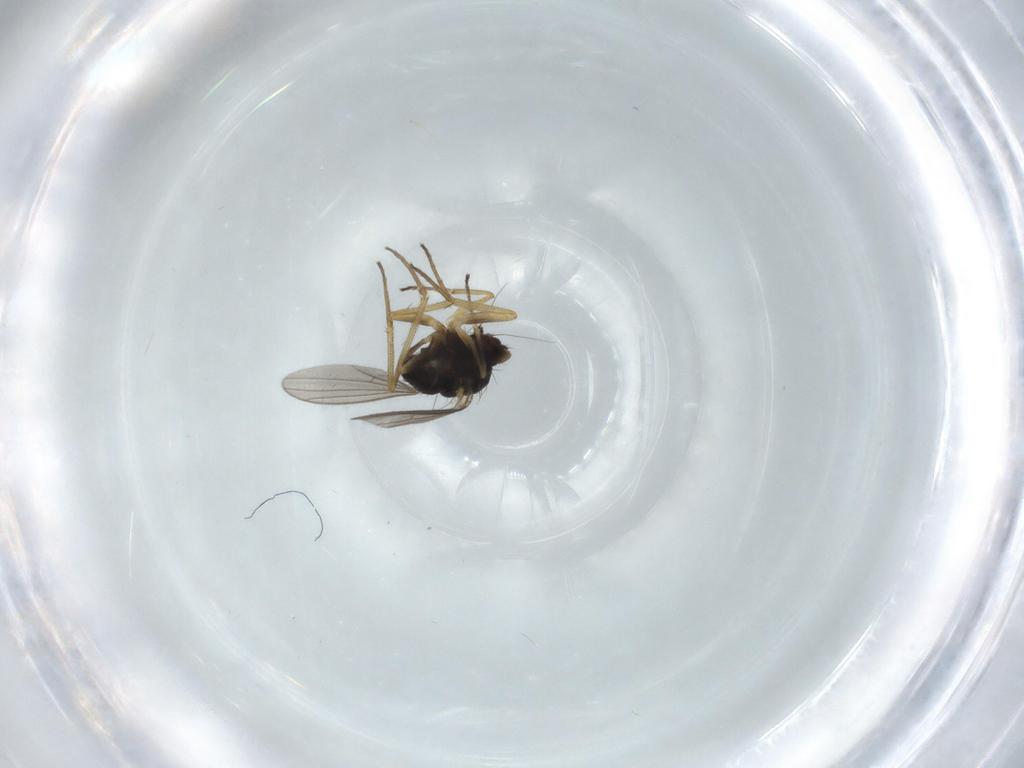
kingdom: Animalia
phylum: Arthropoda
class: Insecta
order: Diptera
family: Dolichopodidae
